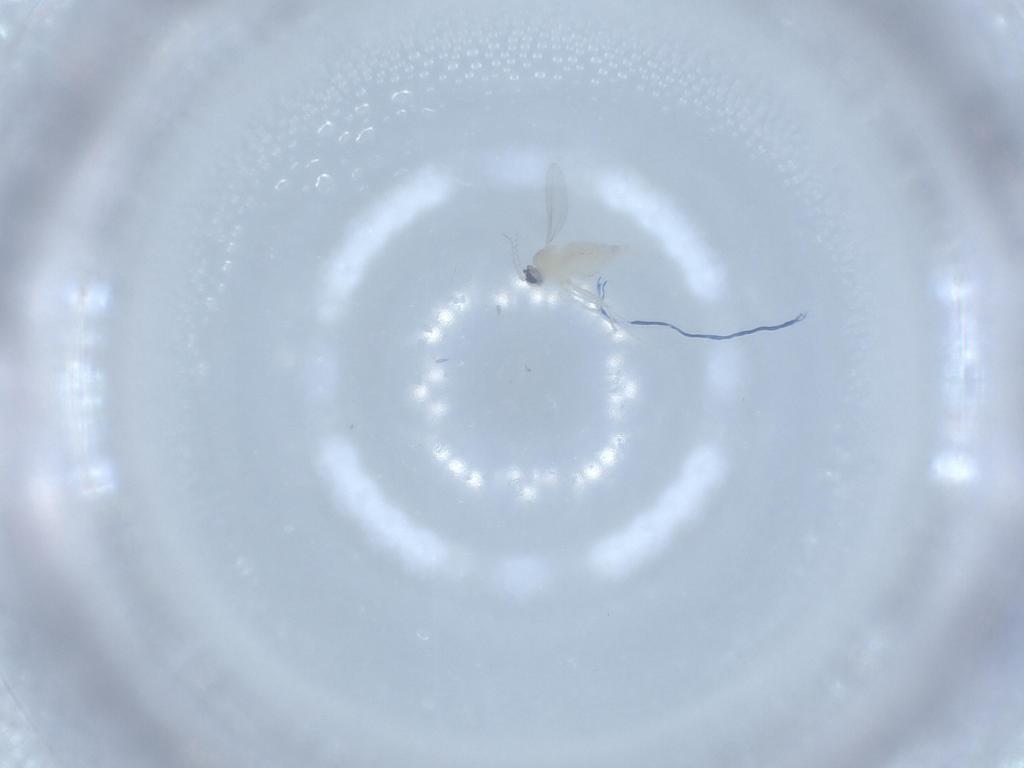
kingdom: Animalia
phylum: Arthropoda
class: Insecta
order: Diptera
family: Cecidomyiidae
